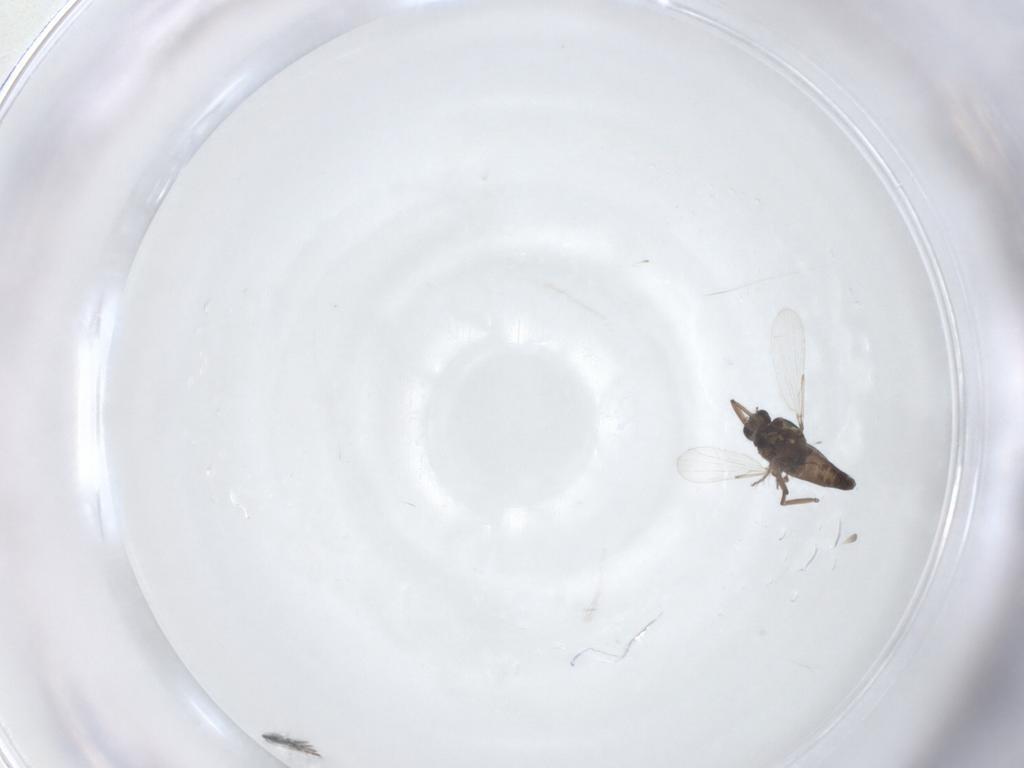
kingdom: Animalia
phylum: Arthropoda
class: Insecta
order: Diptera
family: Ceratopogonidae
